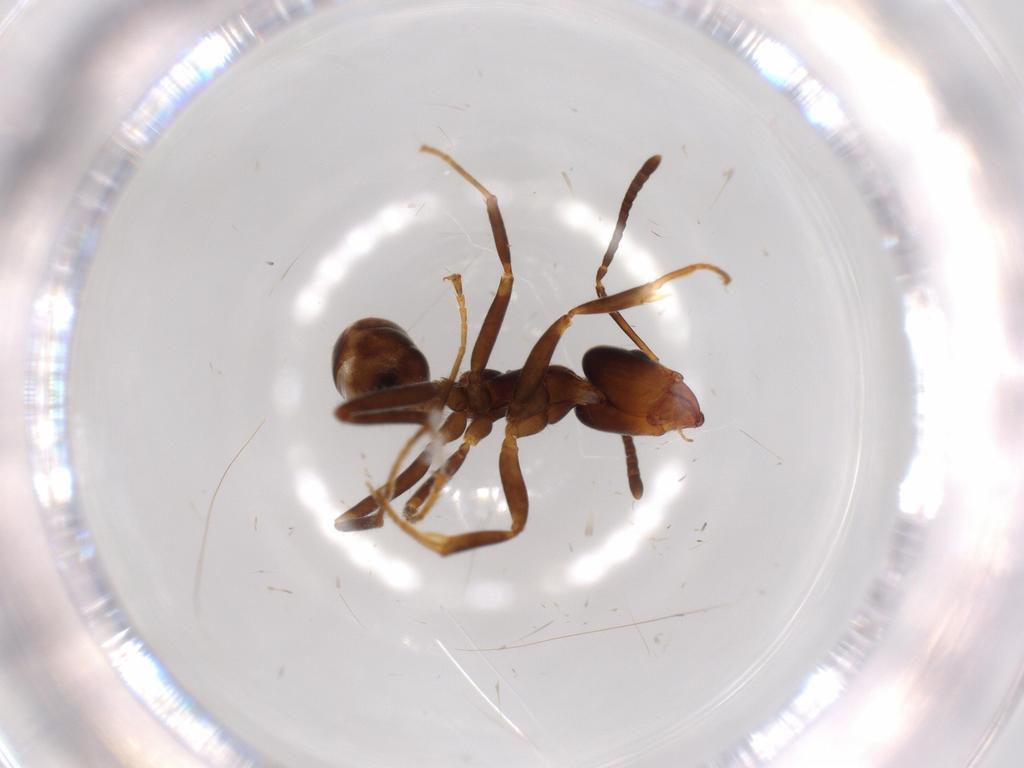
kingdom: Animalia
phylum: Arthropoda
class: Insecta
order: Hymenoptera
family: Formicidae
